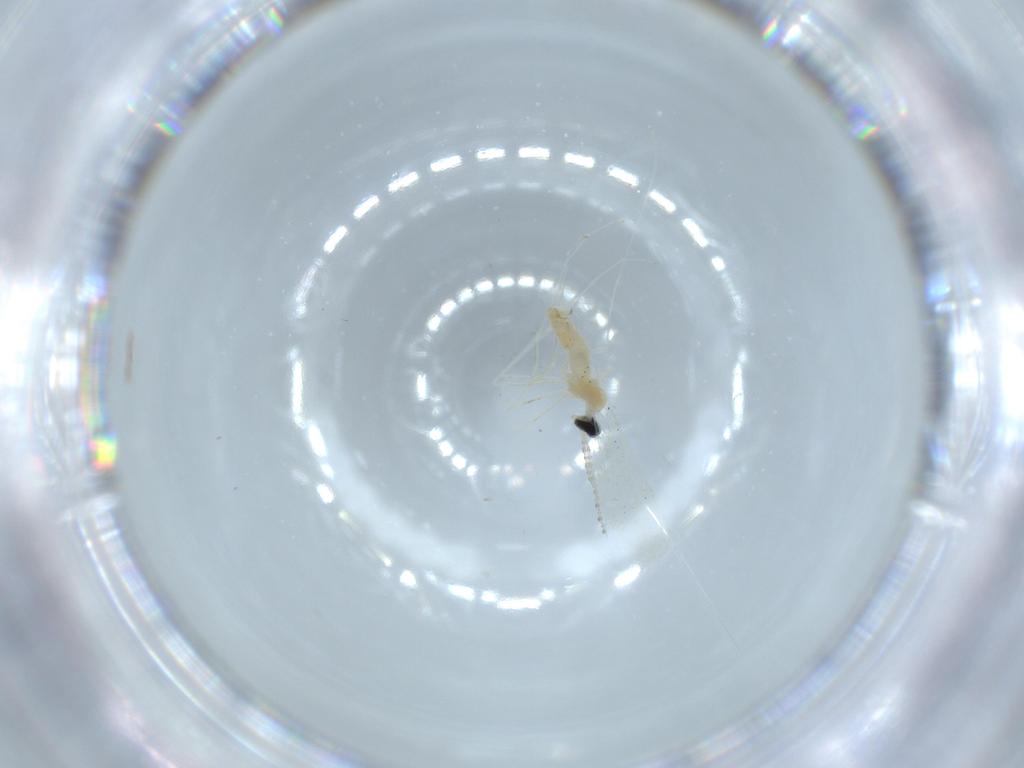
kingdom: Animalia
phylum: Arthropoda
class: Insecta
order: Diptera
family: Cecidomyiidae
